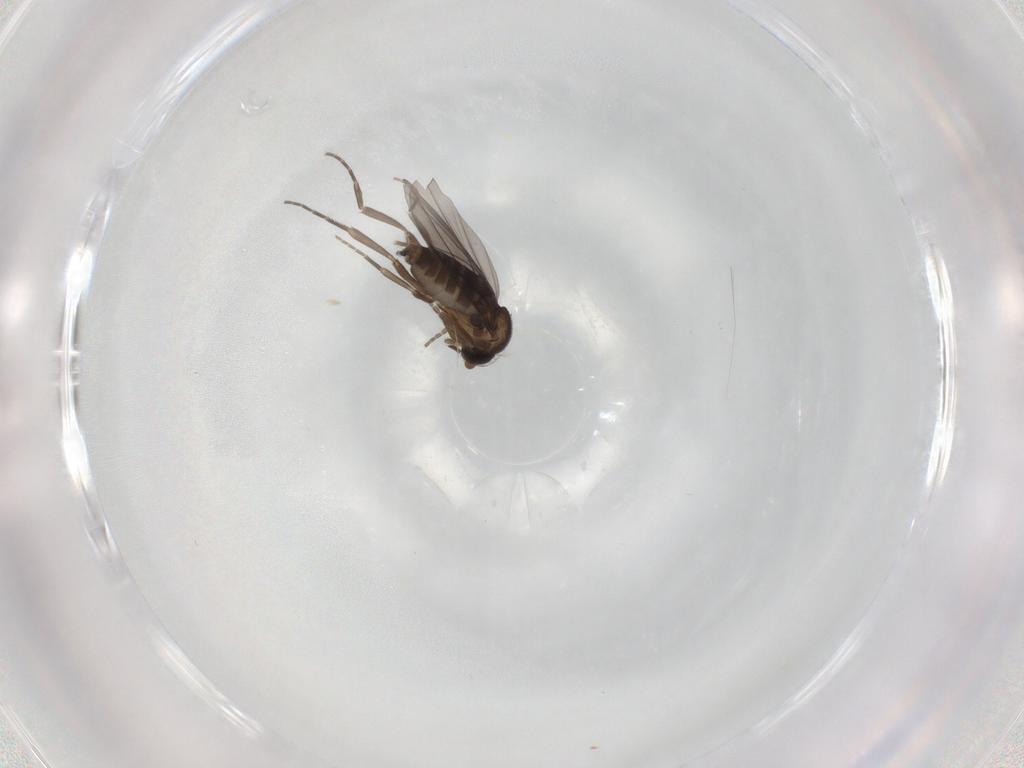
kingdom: Animalia
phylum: Arthropoda
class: Insecta
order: Diptera
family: Phoridae
